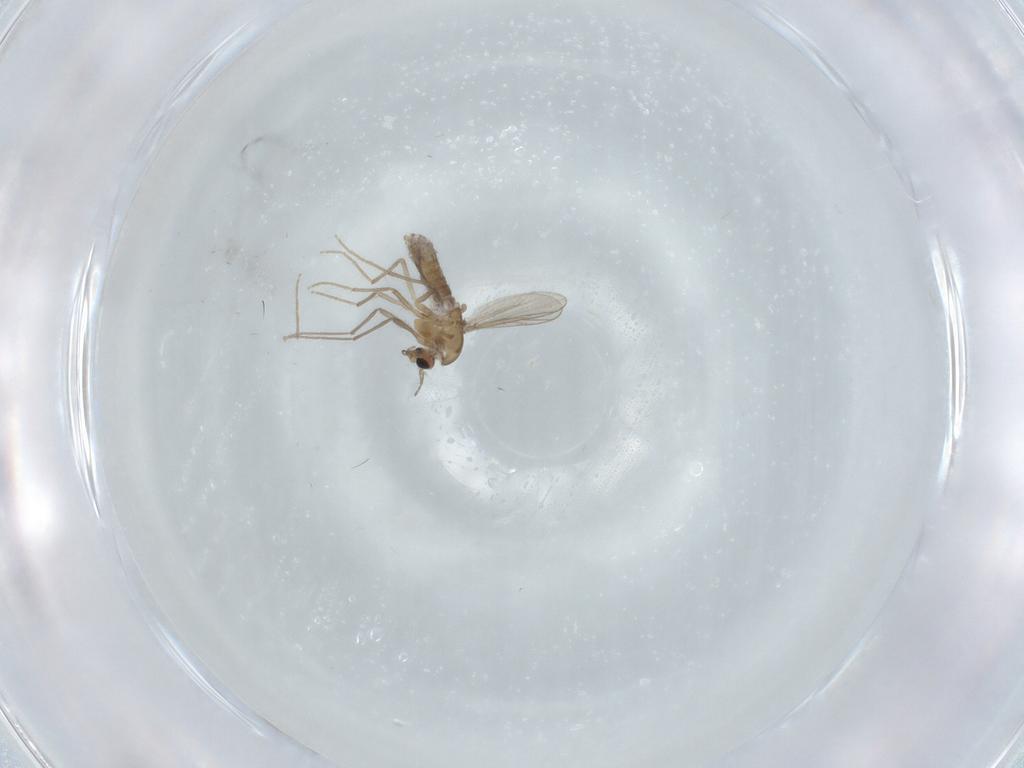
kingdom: Animalia
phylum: Arthropoda
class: Insecta
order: Diptera
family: Chironomidae
